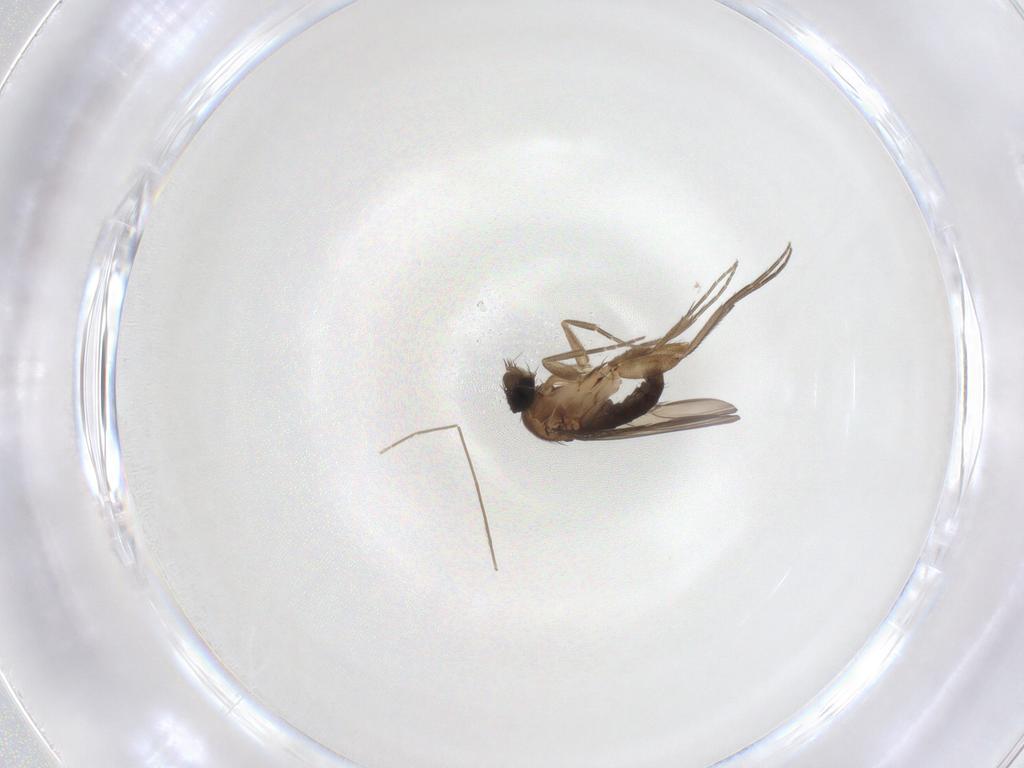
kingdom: Animalia
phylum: Arthropoda
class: Insecta
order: Diptera
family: Phoridae
